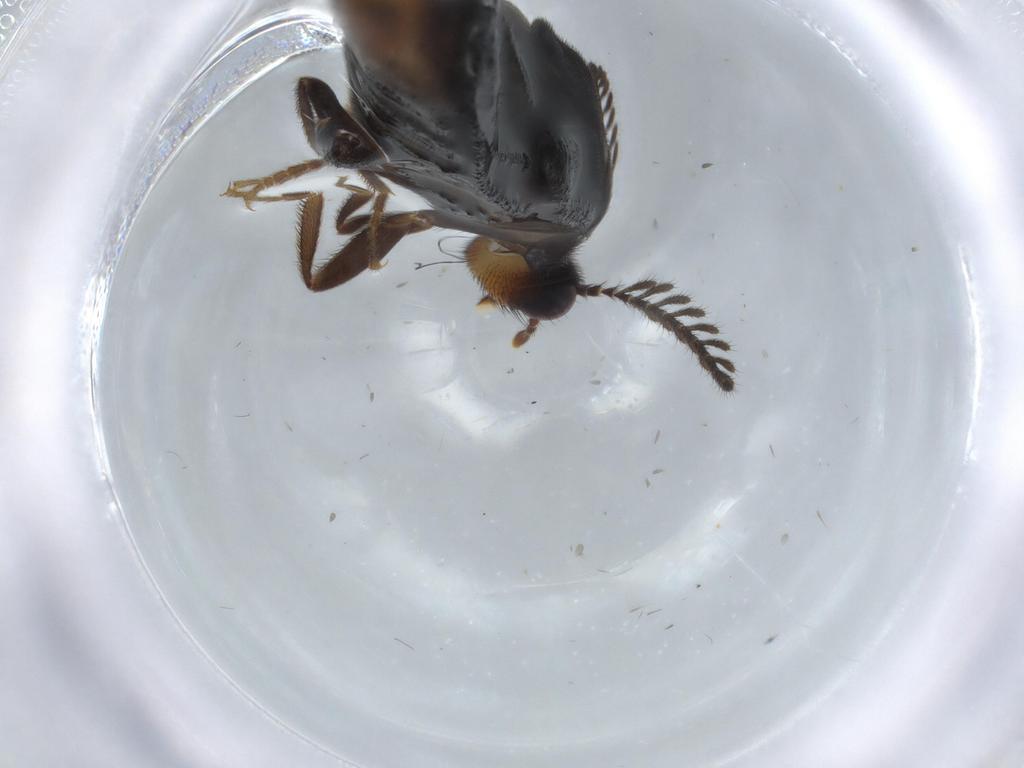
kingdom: Animalia
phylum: Arthropoda
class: Insecta
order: Coleoptera
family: Phengodidae
